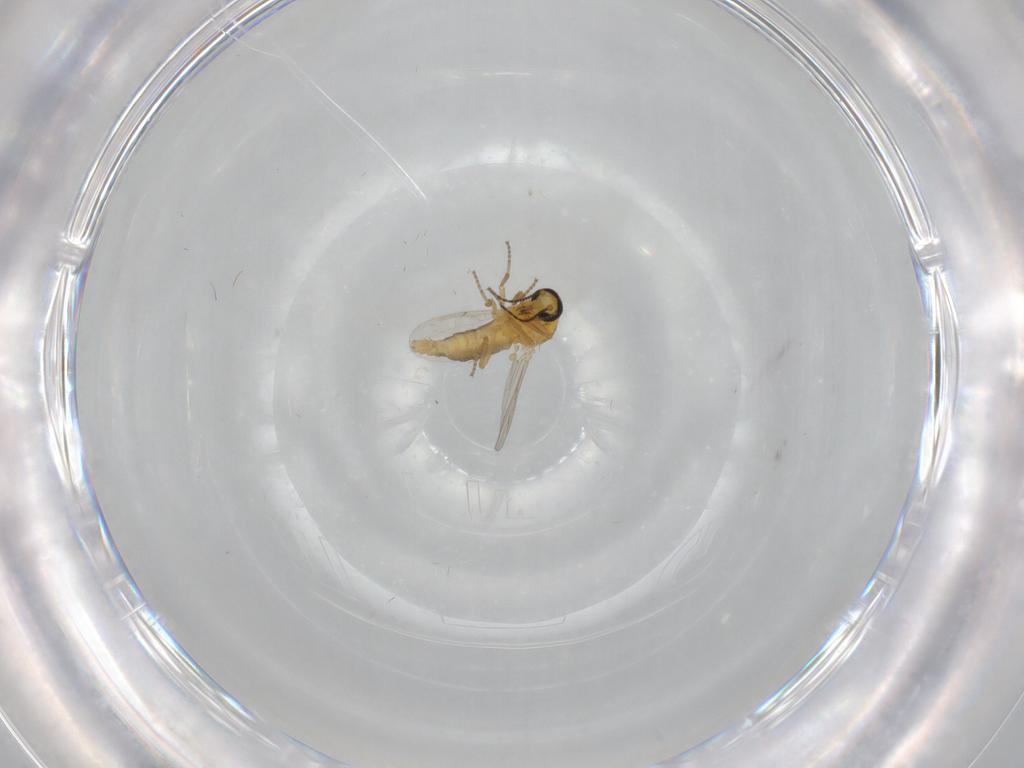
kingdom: Animalia
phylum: Arthropoda
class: Insecta
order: Diptera
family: Ceratopogonidae
